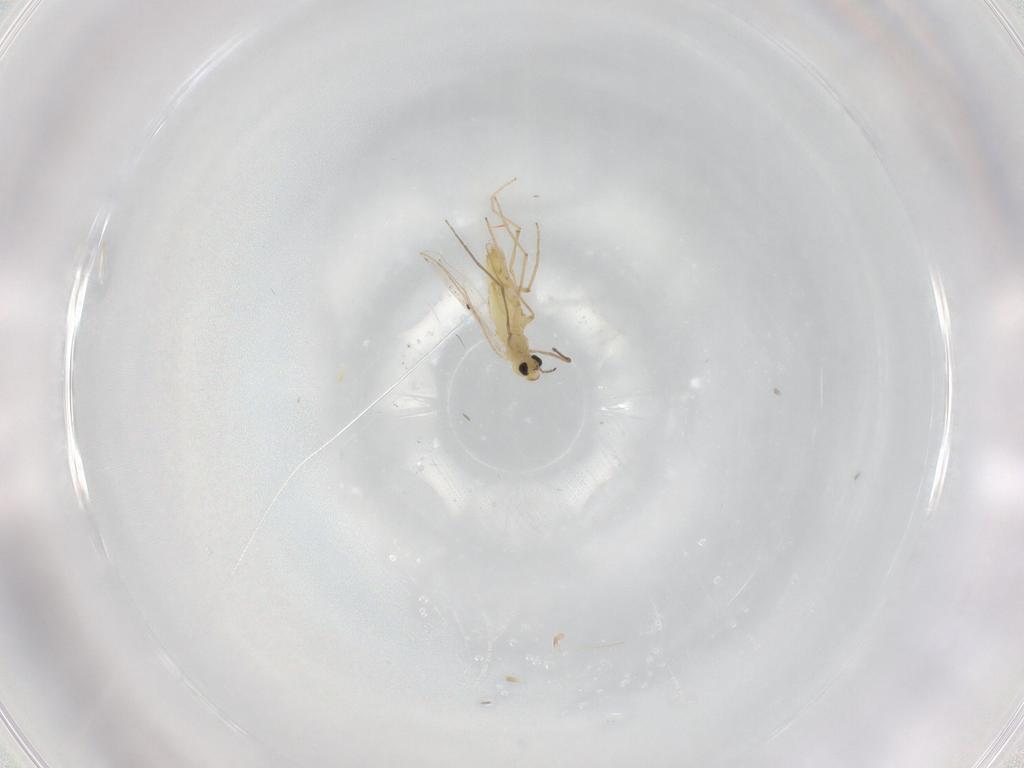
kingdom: Animalia
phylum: Arthropoda
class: Insecta
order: Diptera
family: Chironomidae
